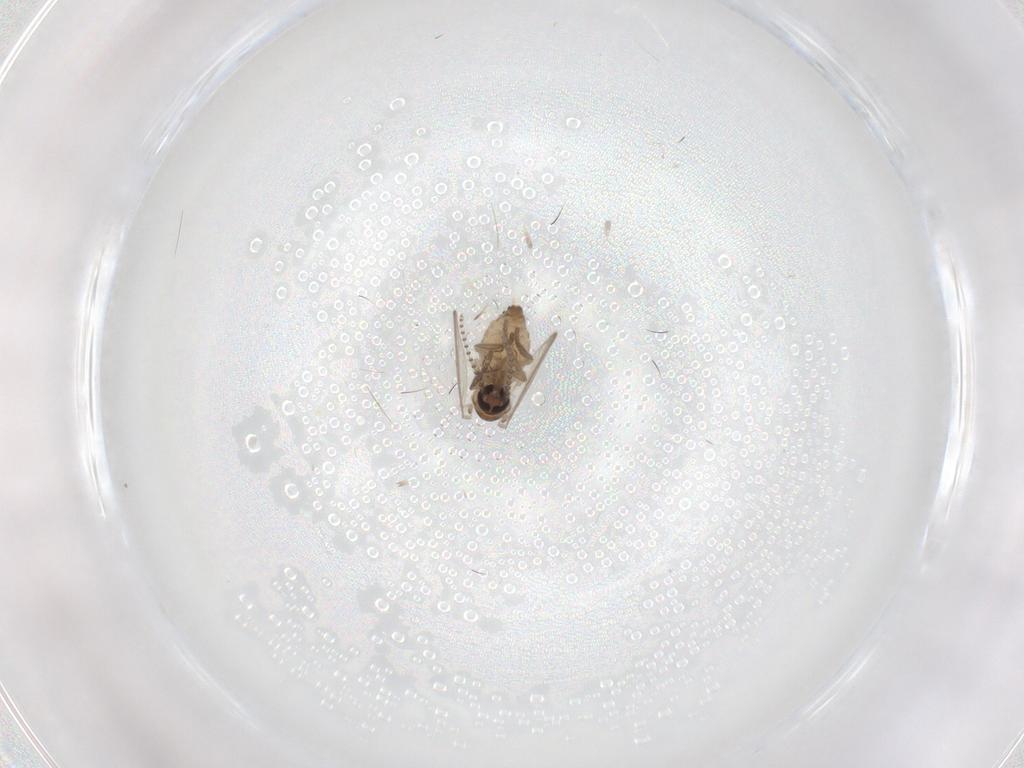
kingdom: Animalia
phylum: Arthropoda
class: Insecta
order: Diptera
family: Psychodidae
